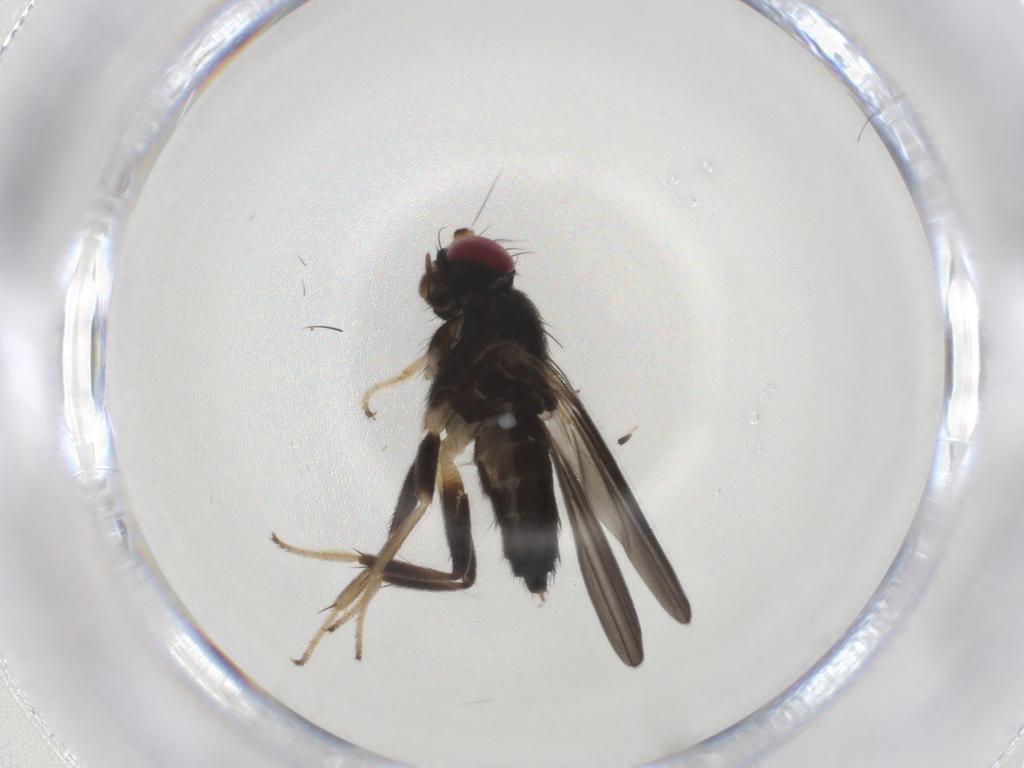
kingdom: Animalia
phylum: Arthropoda
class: Insecta
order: Diptera
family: Clusiidae
